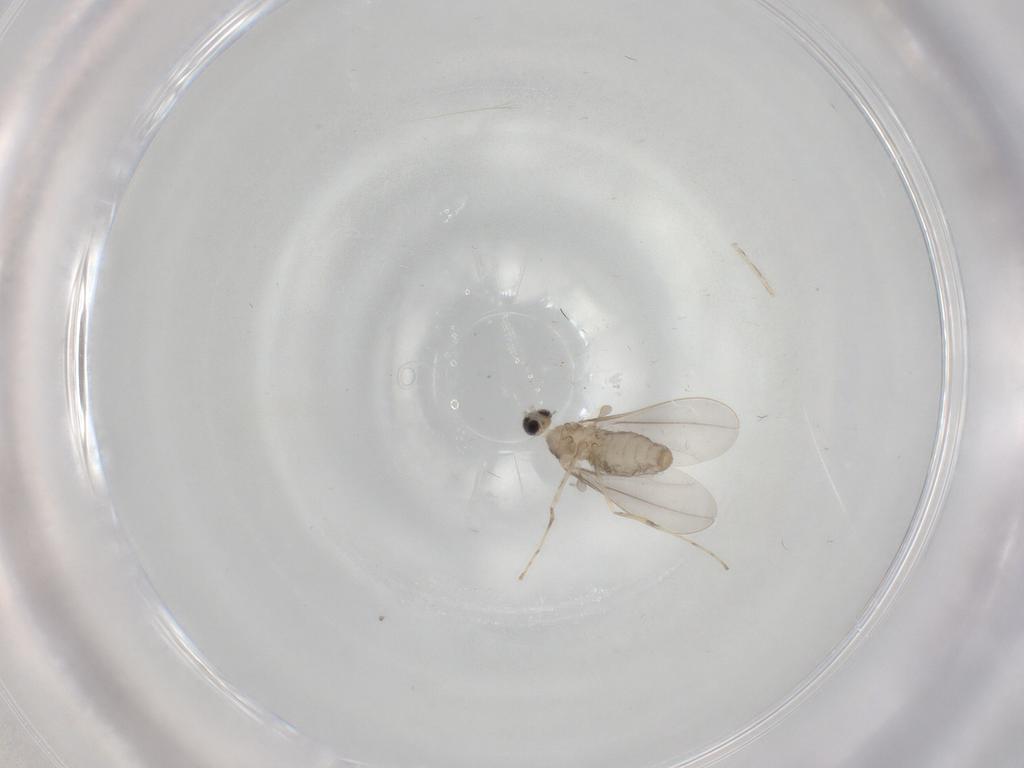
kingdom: Animalia
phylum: Arthropoda
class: Insecta
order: Diptera
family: Cecidomyiidae
